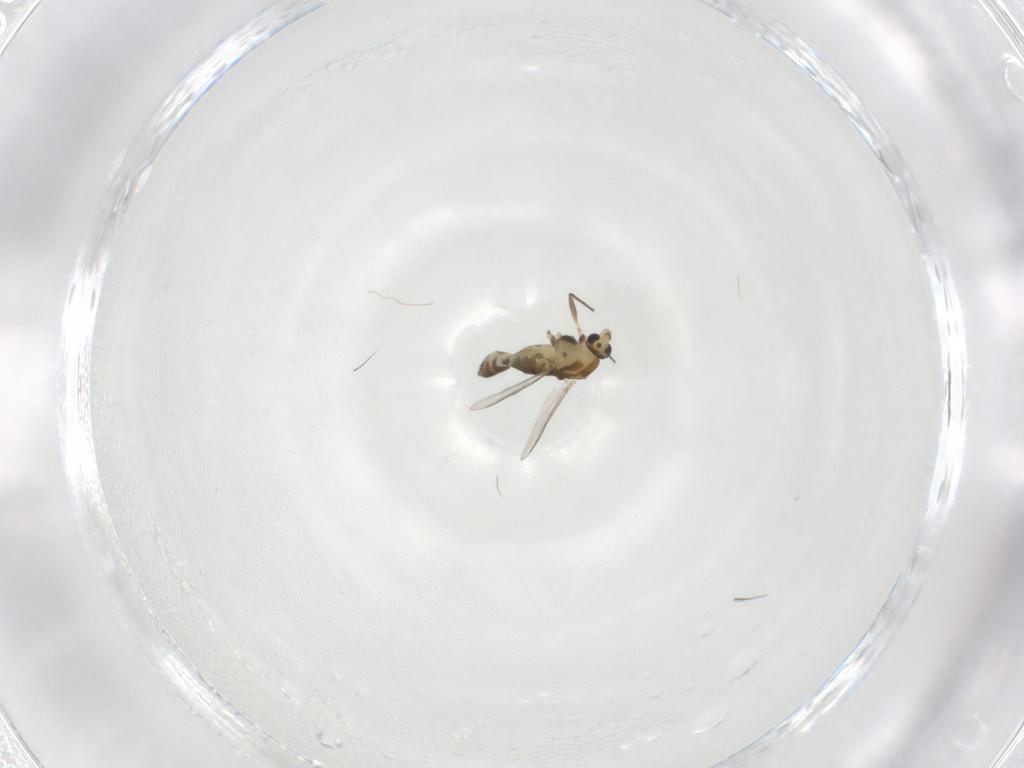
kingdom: Animalia
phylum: Arthropoda
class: Insecta
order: Diptera
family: Chironomidae
